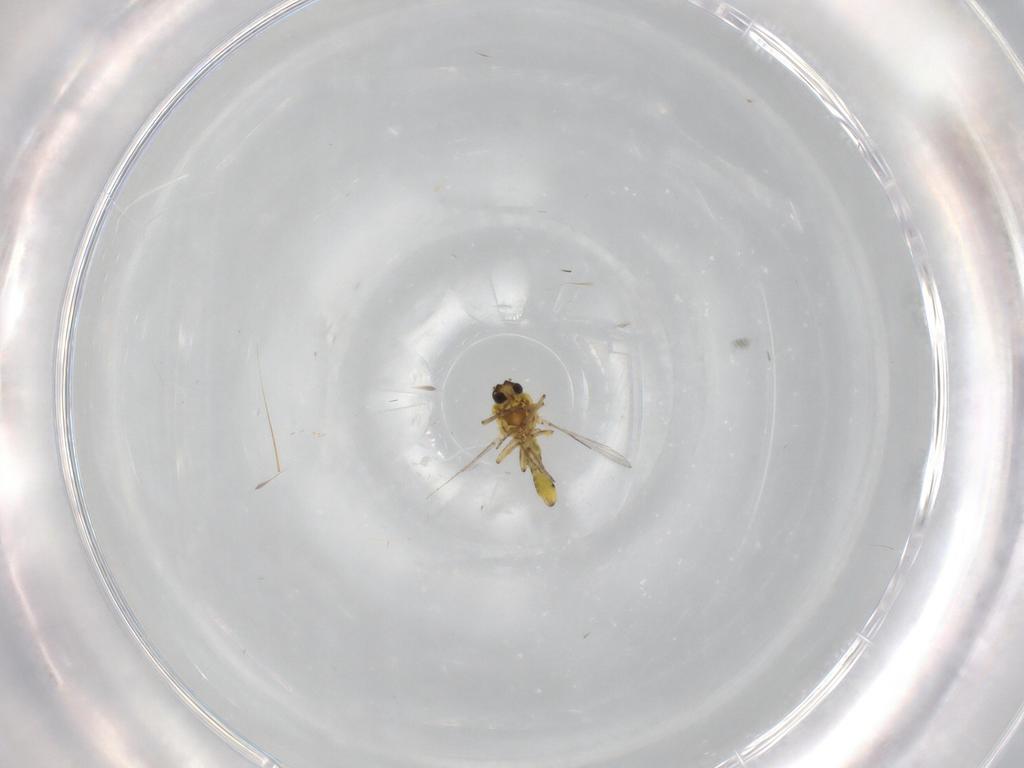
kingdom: Animalia
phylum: Arthropoda
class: Insecta
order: Diptera
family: Ceratopogonidae
